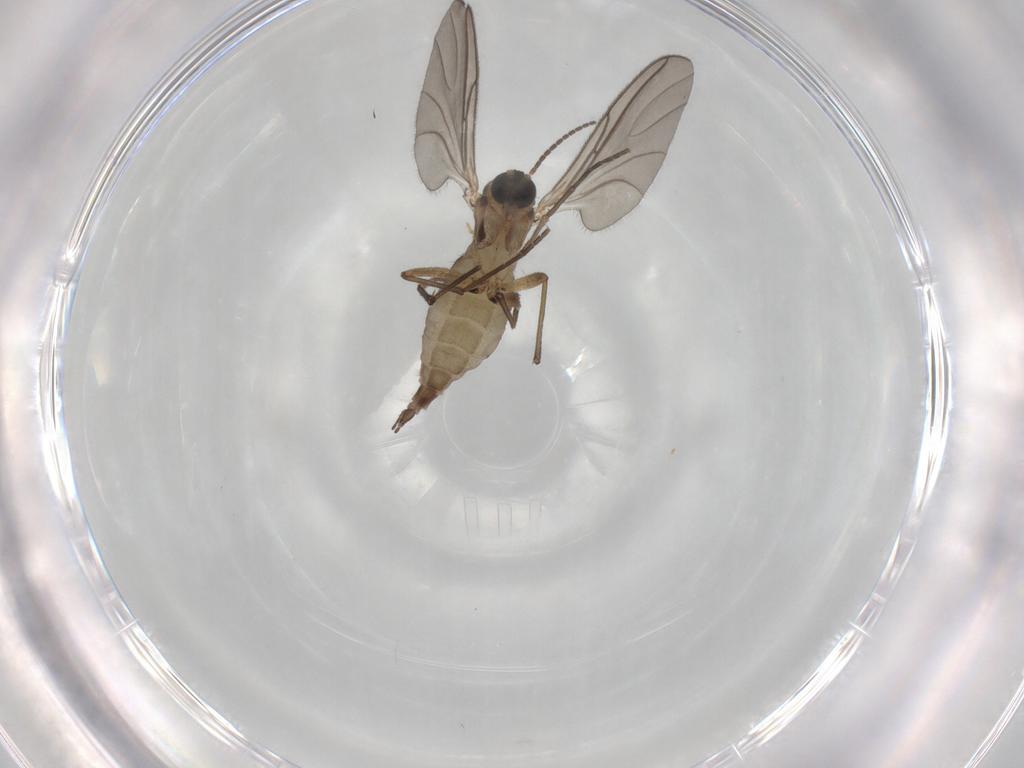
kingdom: Animalia
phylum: Arthropoda
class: Insecta
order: Diptera
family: Sciaridae
